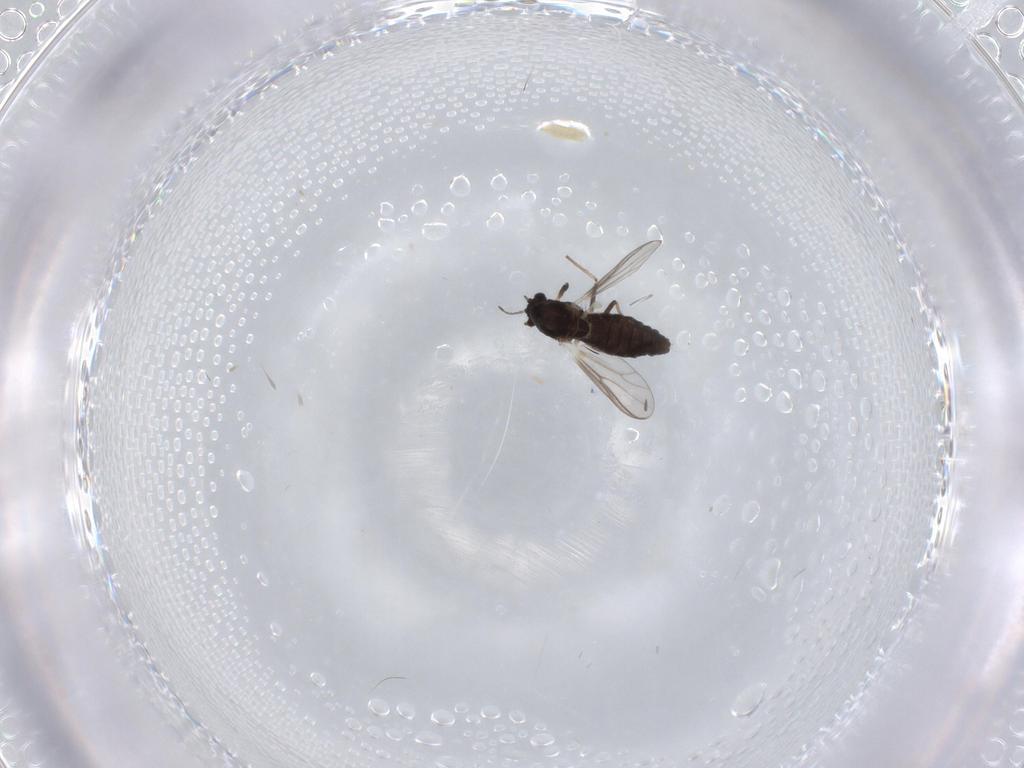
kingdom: Animalia
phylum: Arthropoda
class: Insecta
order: Diptera
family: Chironomidae
